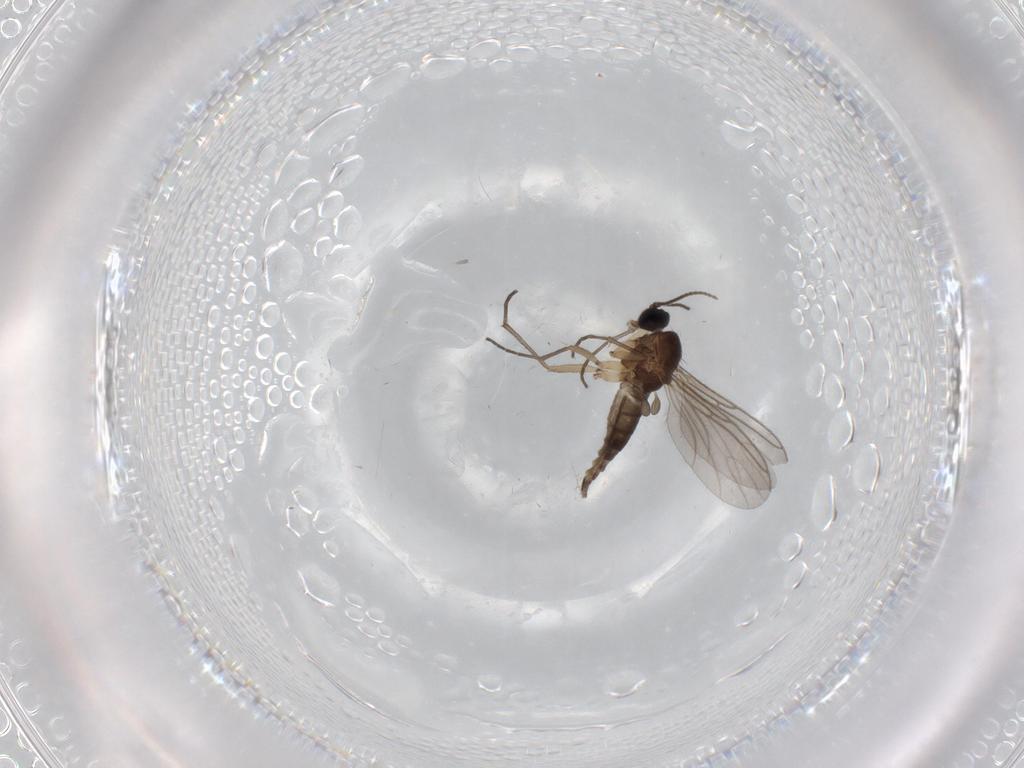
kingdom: Animalia
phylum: Arthropoda
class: Insecta
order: Diptera
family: Sciaridae
